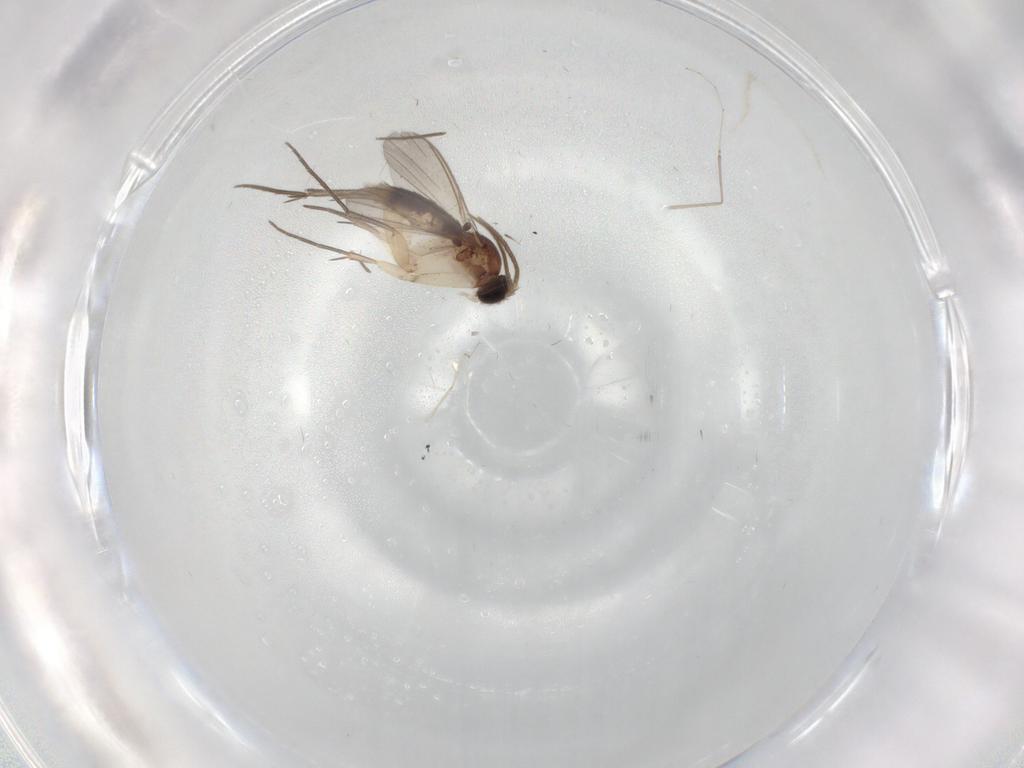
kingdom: Animalia
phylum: Arthropoda
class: Insecta
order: Diptera
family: Mycetophilidae
